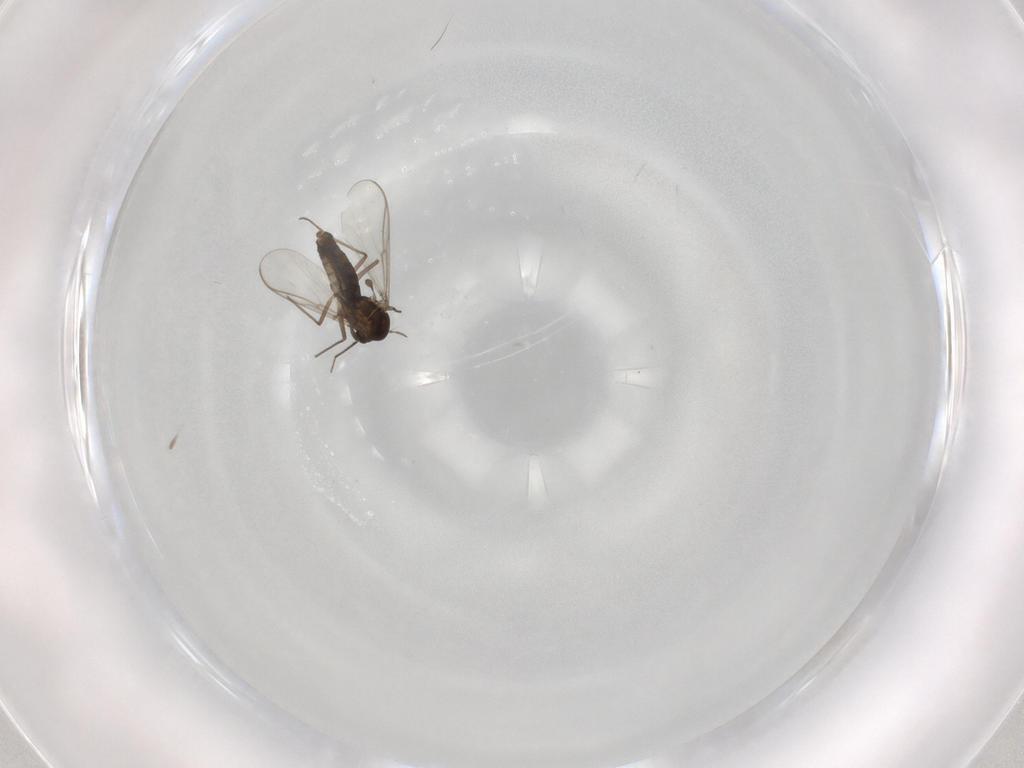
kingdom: Animalia
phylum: Arthropoda
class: Insecta
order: Diptera
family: Chironomidae
